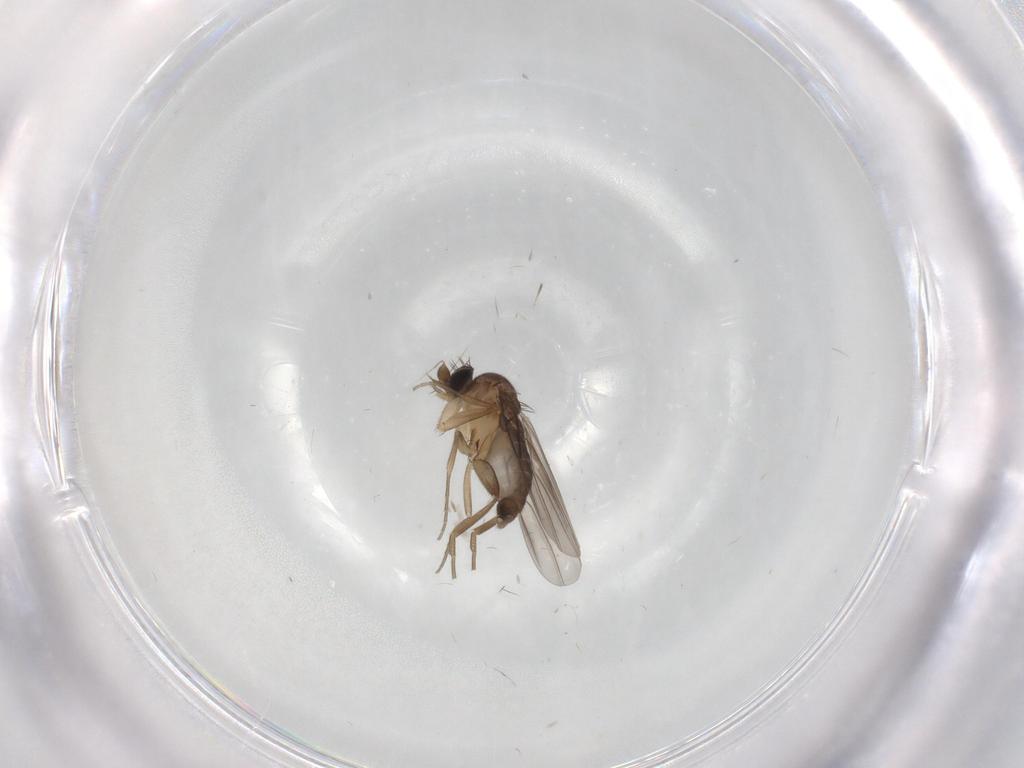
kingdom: Animalia
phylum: Arthropoda
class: Insecta
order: Diptera
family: Phoridae
